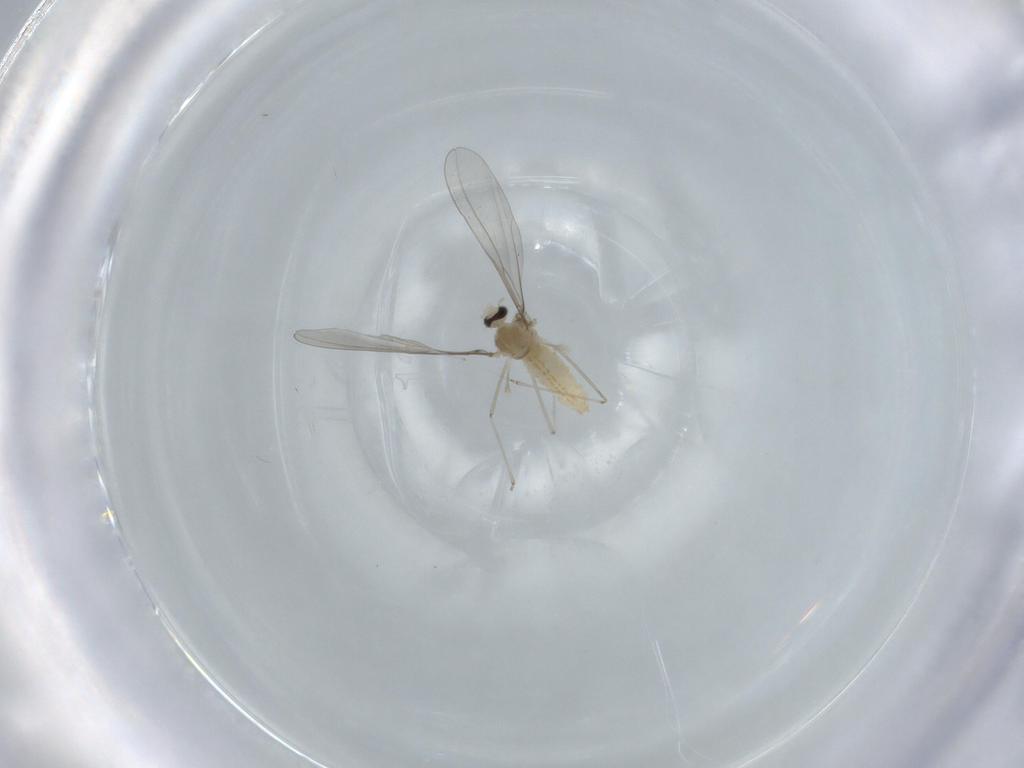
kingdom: Animalia
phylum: Arthropoda
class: Insecta
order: Diptera
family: Cecidomyiidae
